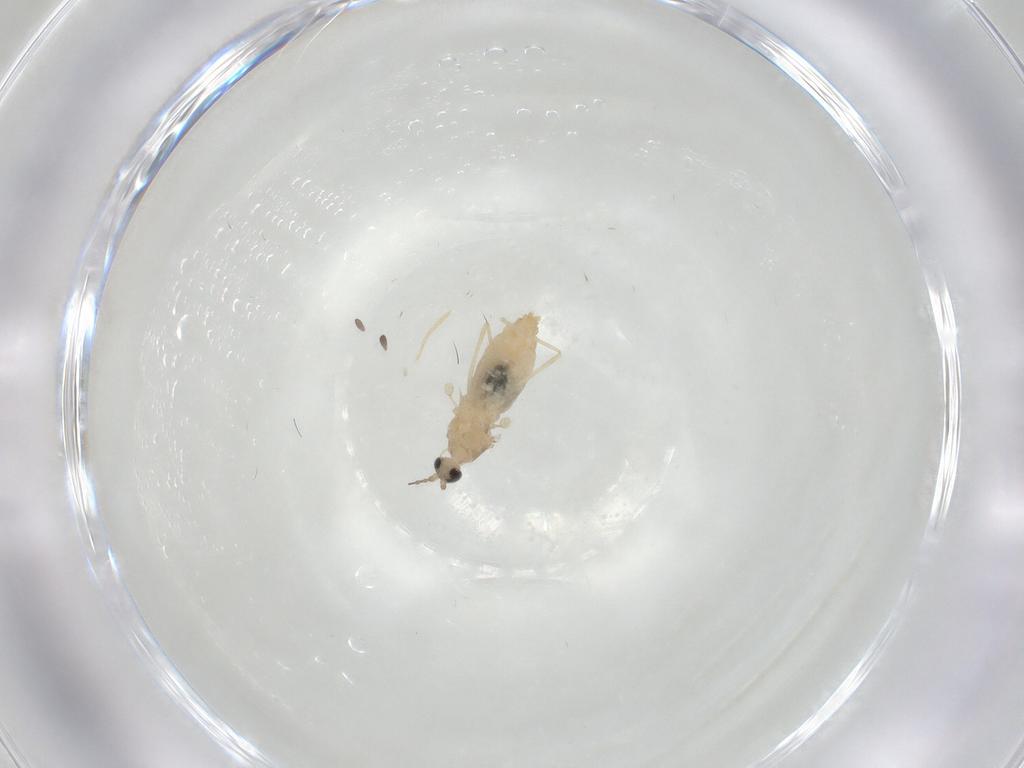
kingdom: Animalia
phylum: Arthropoda
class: Insecta
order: Diptera
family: Cecidomyiidae
